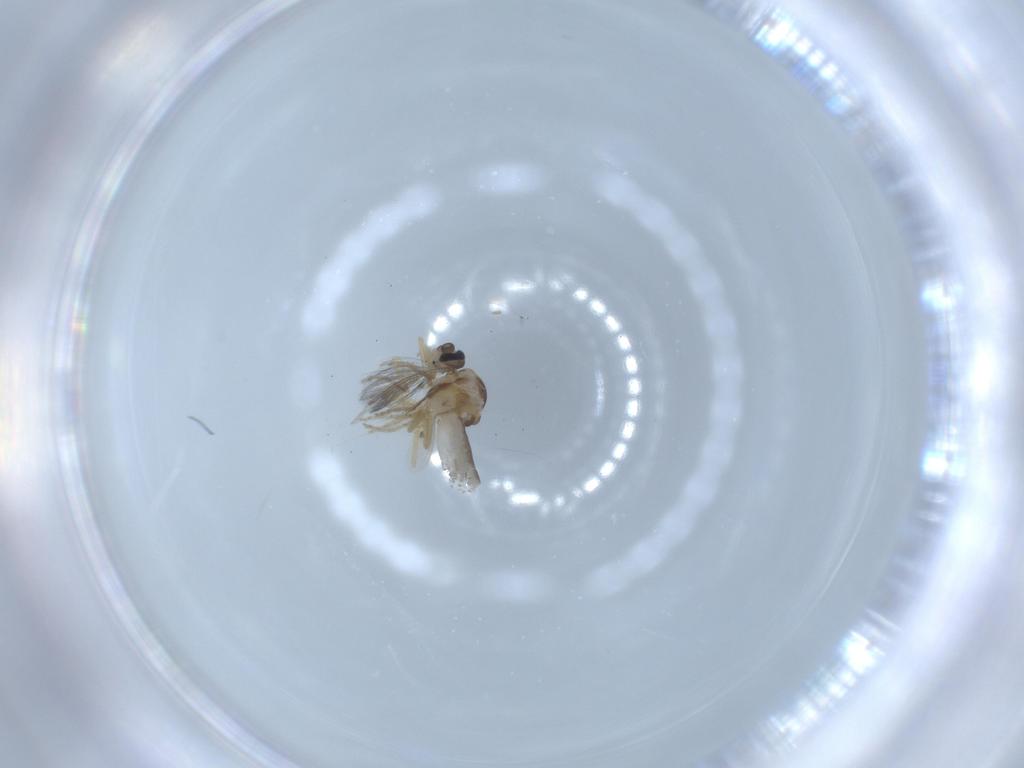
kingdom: Animalia
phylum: Arthropoda
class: Insecta
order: Diptera
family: Ceratopogonidae
